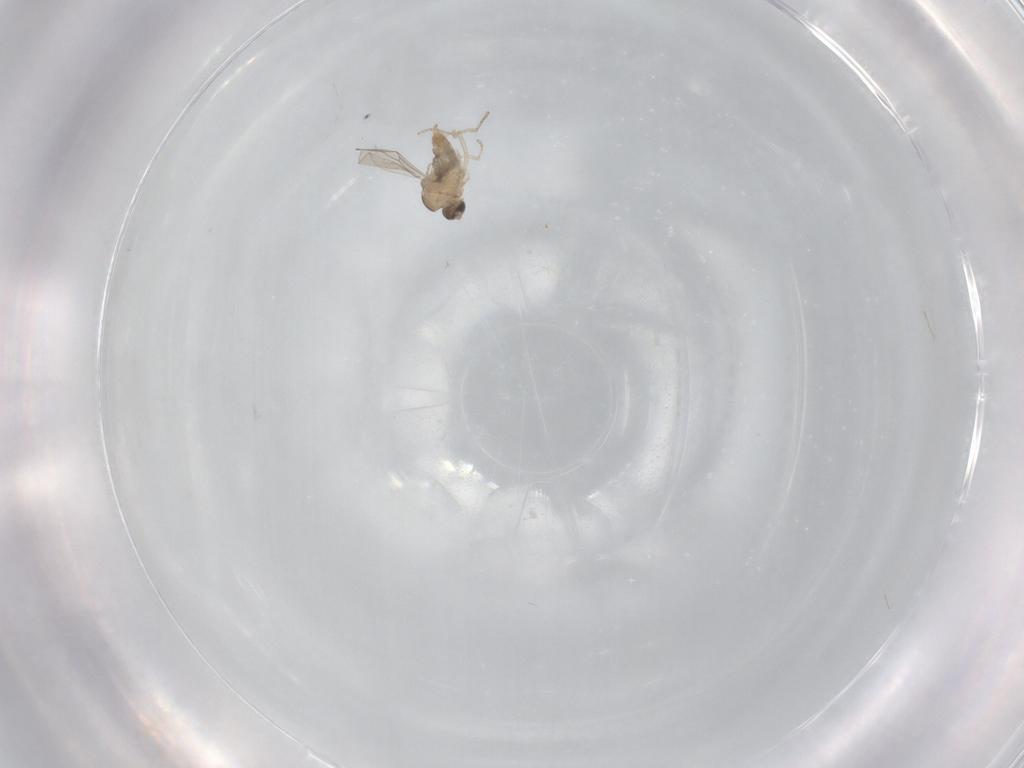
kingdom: Animalia
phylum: Arthropoda
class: Insecta
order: Diptera
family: Cecidomyiidae
